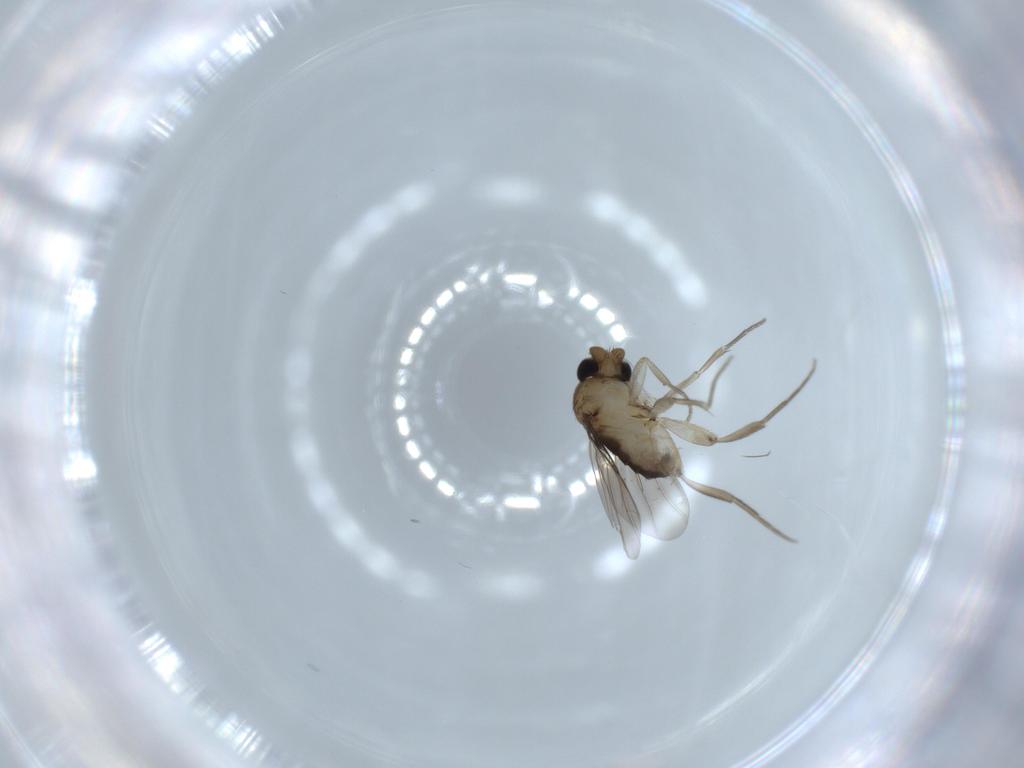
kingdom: Animalia
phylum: Arthropoda
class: Insecta
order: Diptera
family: Phoridae
